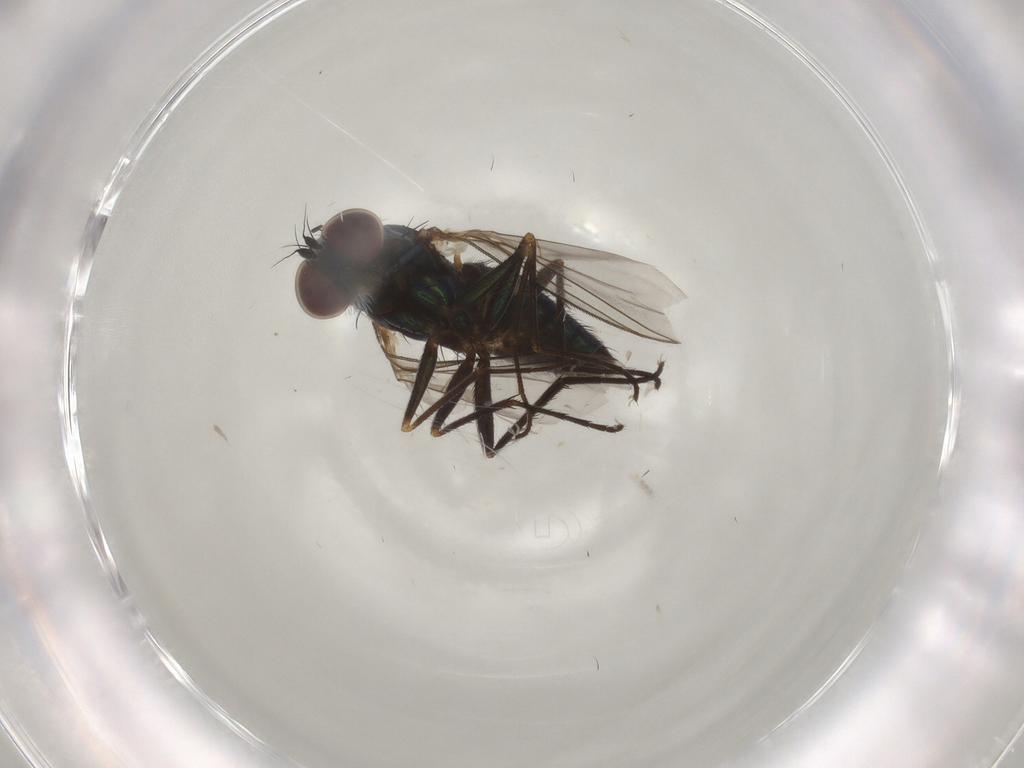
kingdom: Animalia
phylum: Arthropoda
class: Insecta
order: Diptera
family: Dolichopodidae
